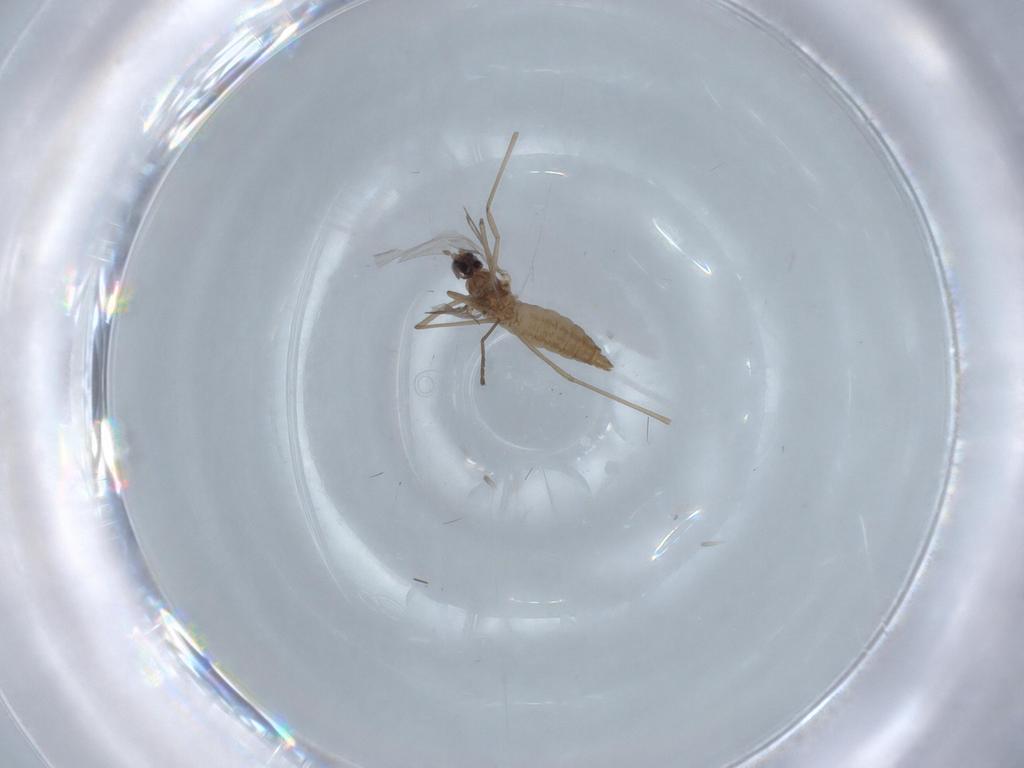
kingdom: Animalia
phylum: Arthropoda
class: Insecta
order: Diptera
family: Cecidomyiidae
